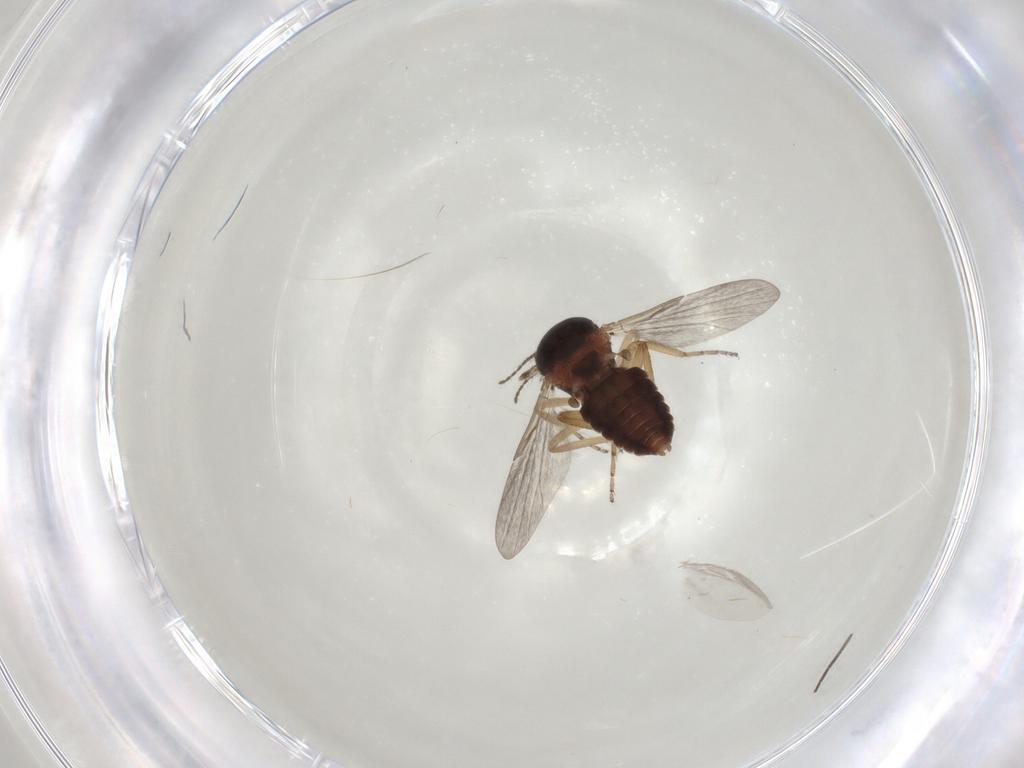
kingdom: Animalia
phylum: Arthropoda
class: Insecta
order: Diptera
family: Ceratopogonidae
